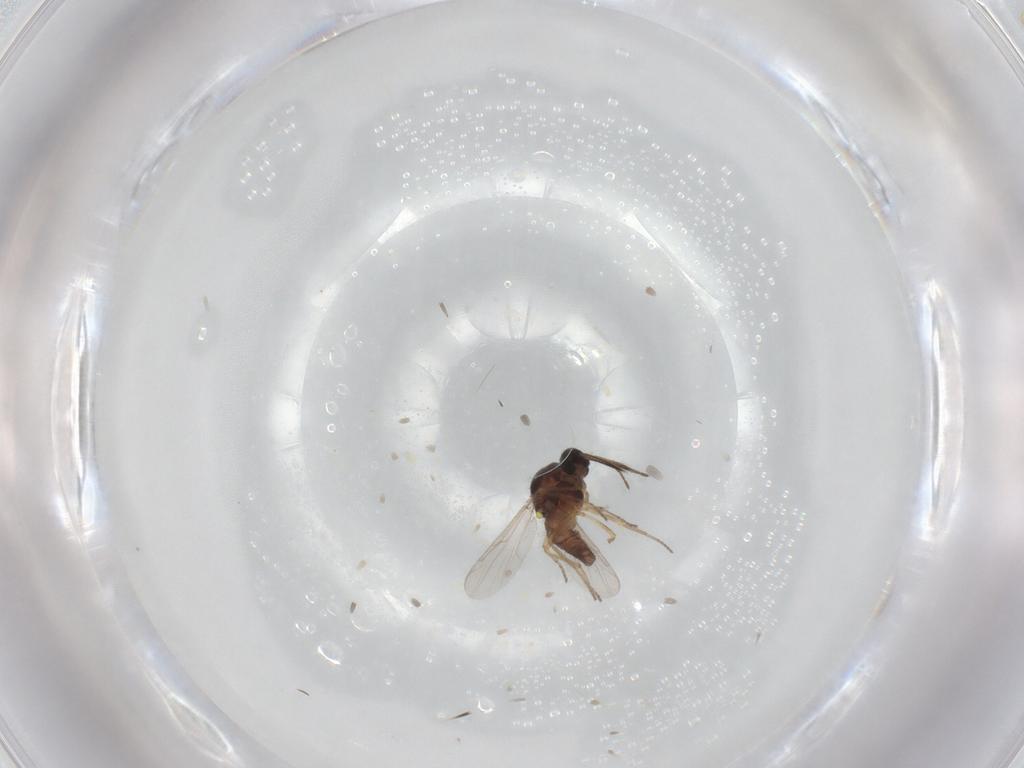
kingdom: Animalia
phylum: Arthropoda
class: Insecta
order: Diptera
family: Ceratopogonidae
